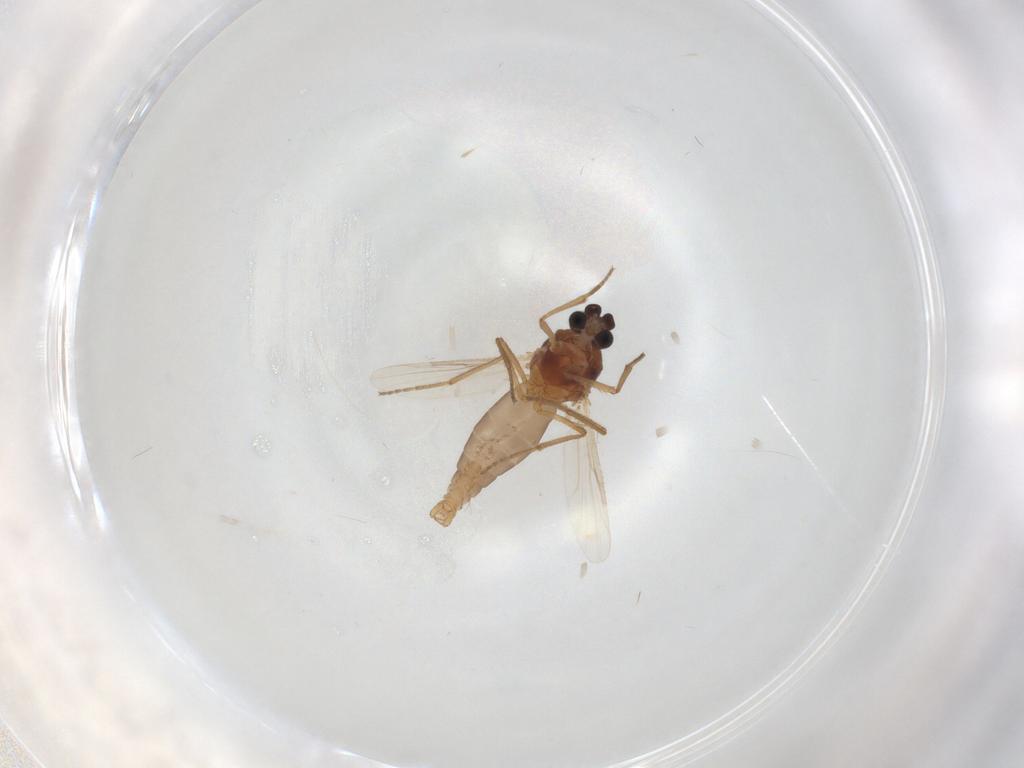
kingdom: Animalia
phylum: Arthropoda
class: Insecta
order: Diptera
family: Ceratopogonidae
